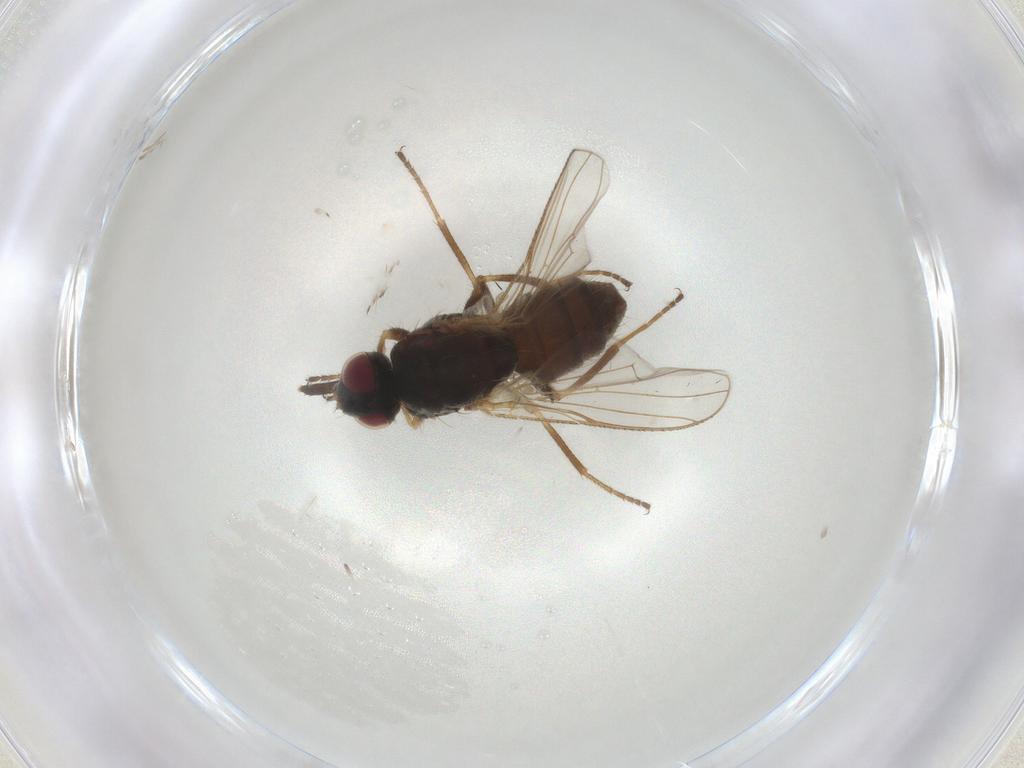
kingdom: Animalia
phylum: Arthropoda
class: Insecta
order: Diptera
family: Muscidae
